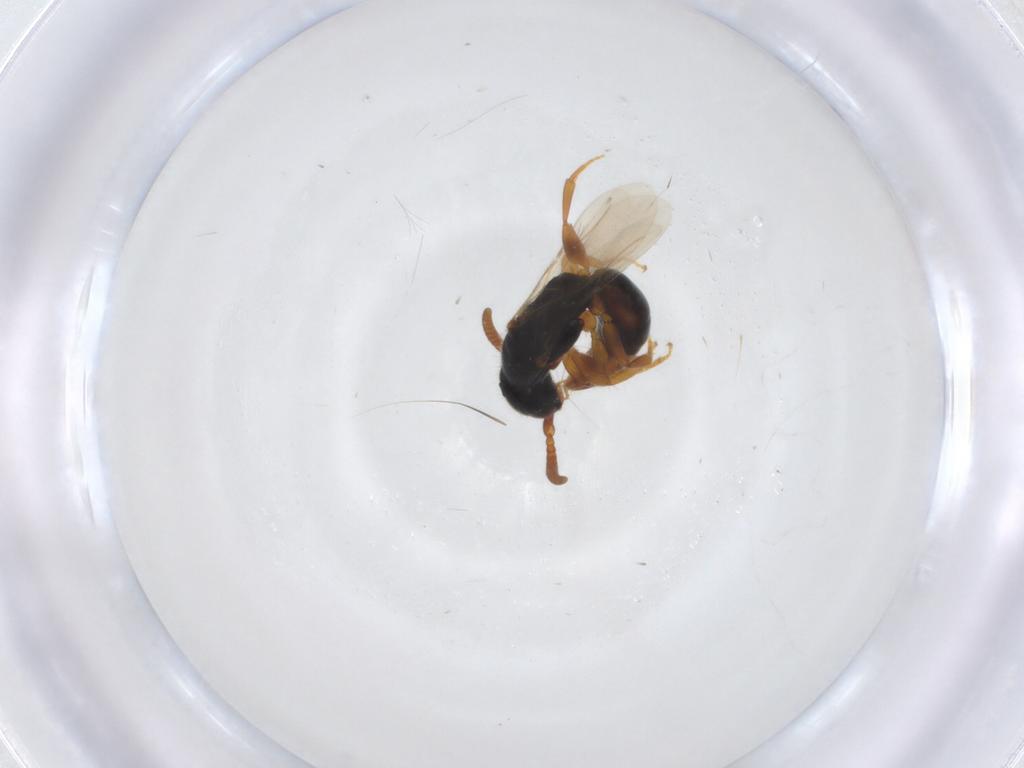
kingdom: Animalia
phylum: Arthropoda
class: Insecta
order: Hymenoptera
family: Bethylidae
